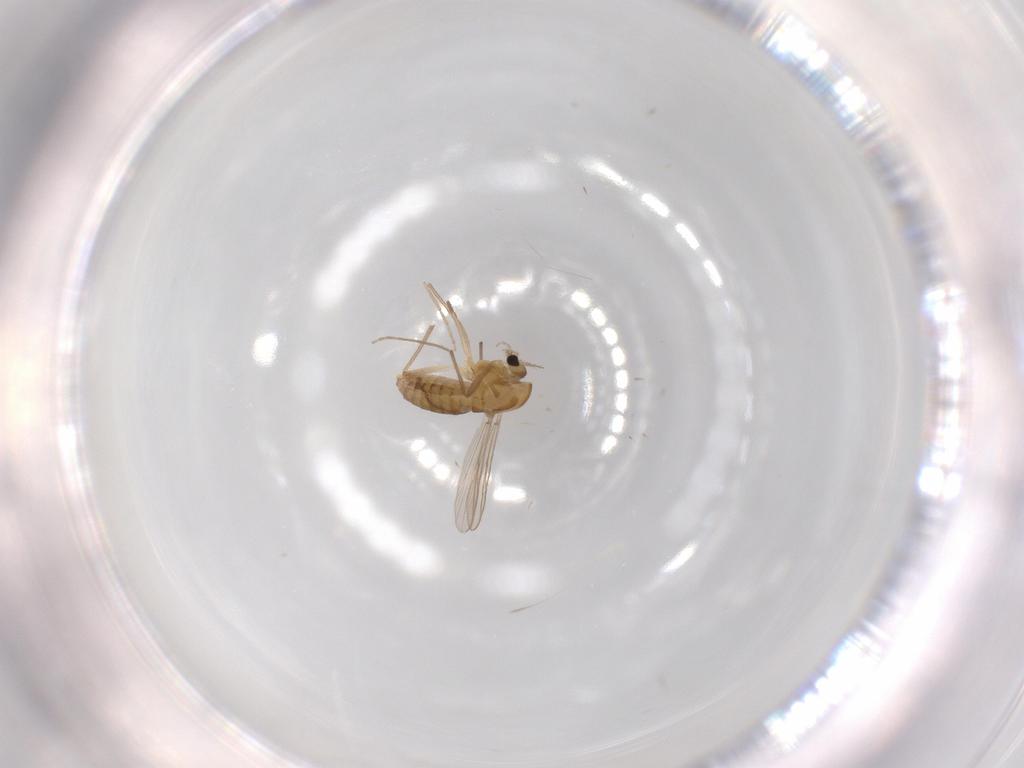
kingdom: Animalia
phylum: Arthropoda
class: Insecta
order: Diptera
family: Chironomidae
